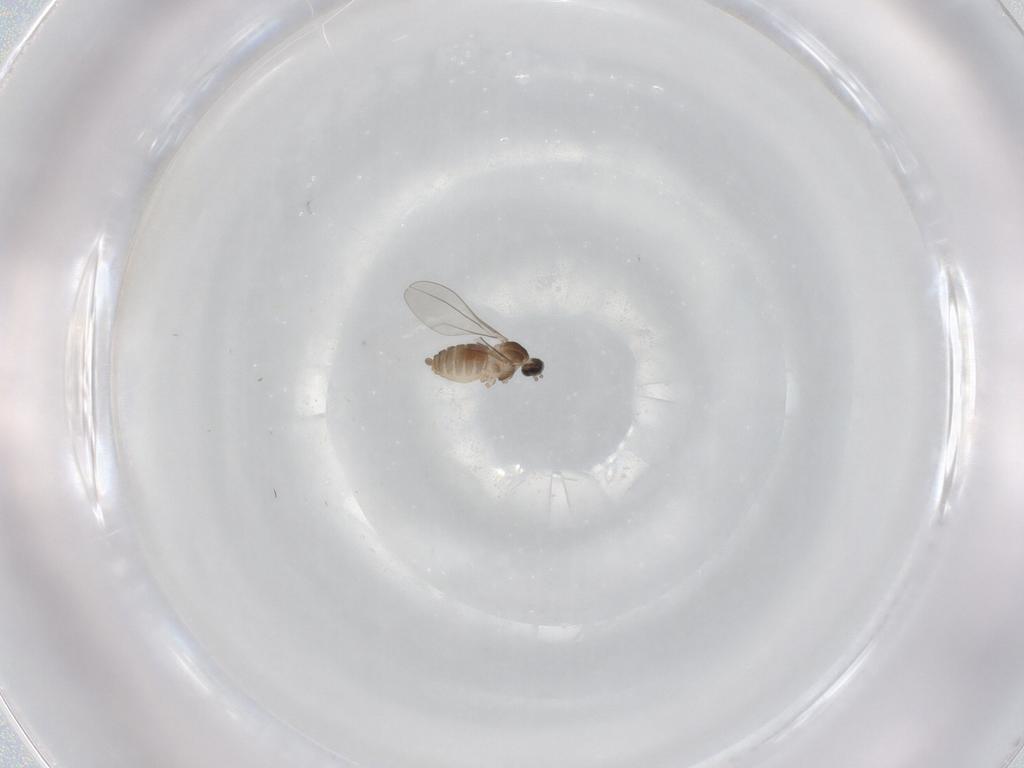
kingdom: Animalia
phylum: Arthropoda
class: Insecta
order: Diptera
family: Cecidomyiidae
